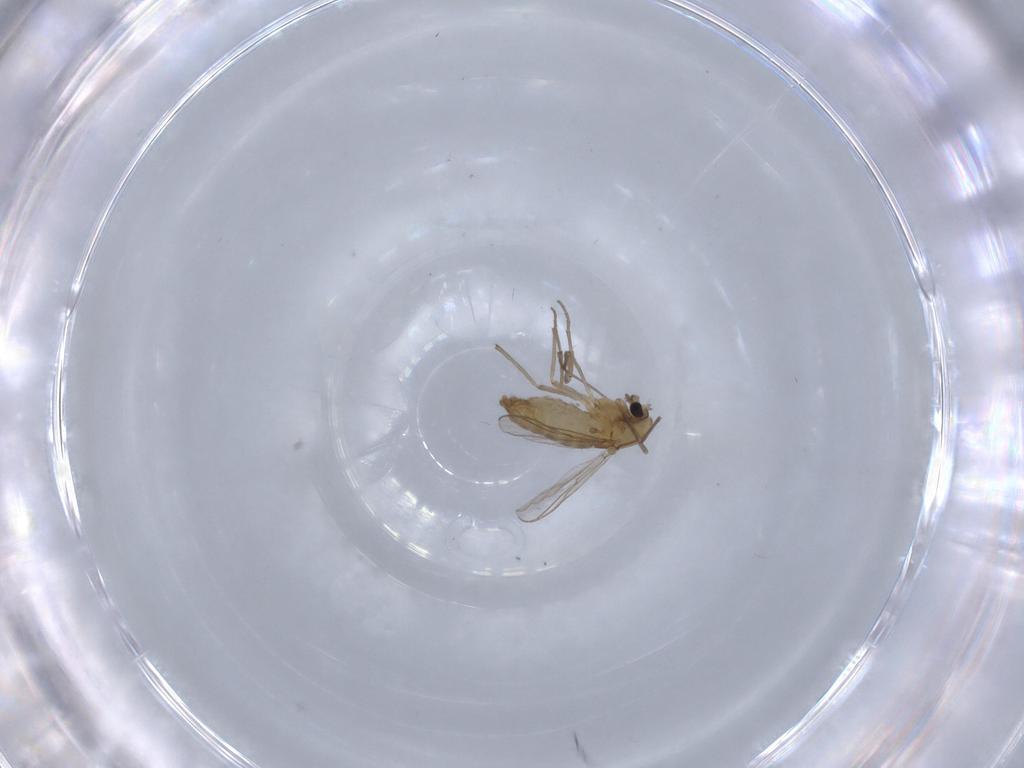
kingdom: Animalia
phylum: Arthropoda
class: Insecta
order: Diptera
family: Chironomidae
